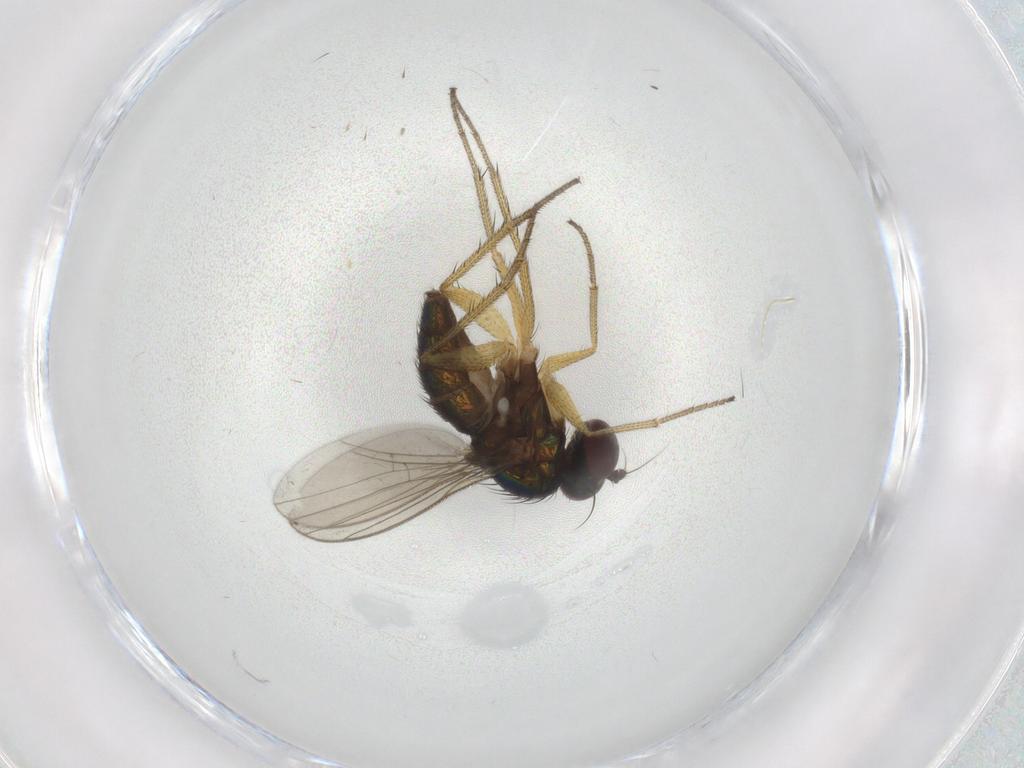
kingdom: Animalia
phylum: Arthropoda
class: Insecta
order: Diptera
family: Dolichopodidae
